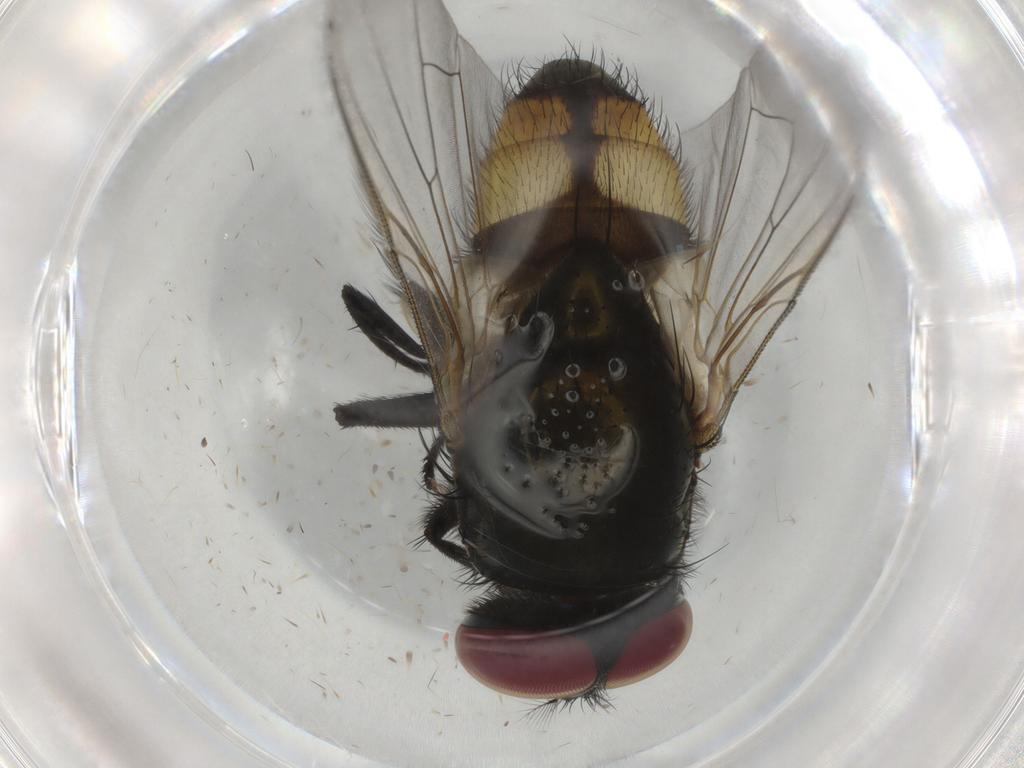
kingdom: Animalia
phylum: Arthropoda
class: Insecta
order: Diptera
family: Muscidae
